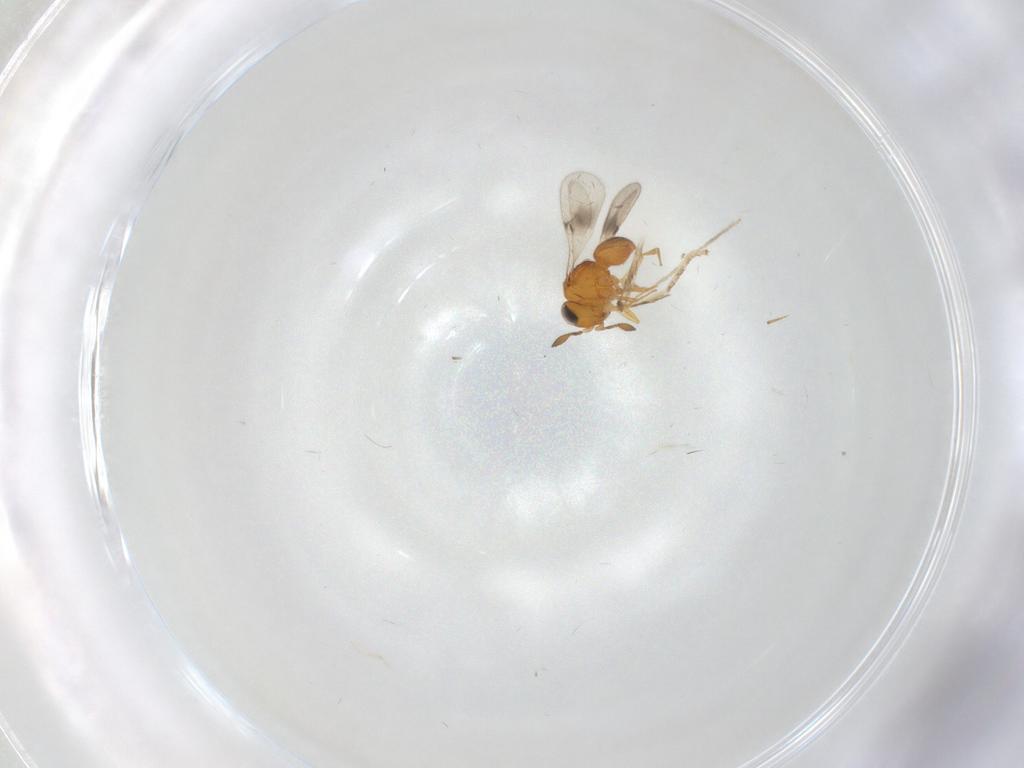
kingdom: Animalia
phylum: Arthropoda
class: Insecta
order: Hymenoptera
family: Scelionidae
